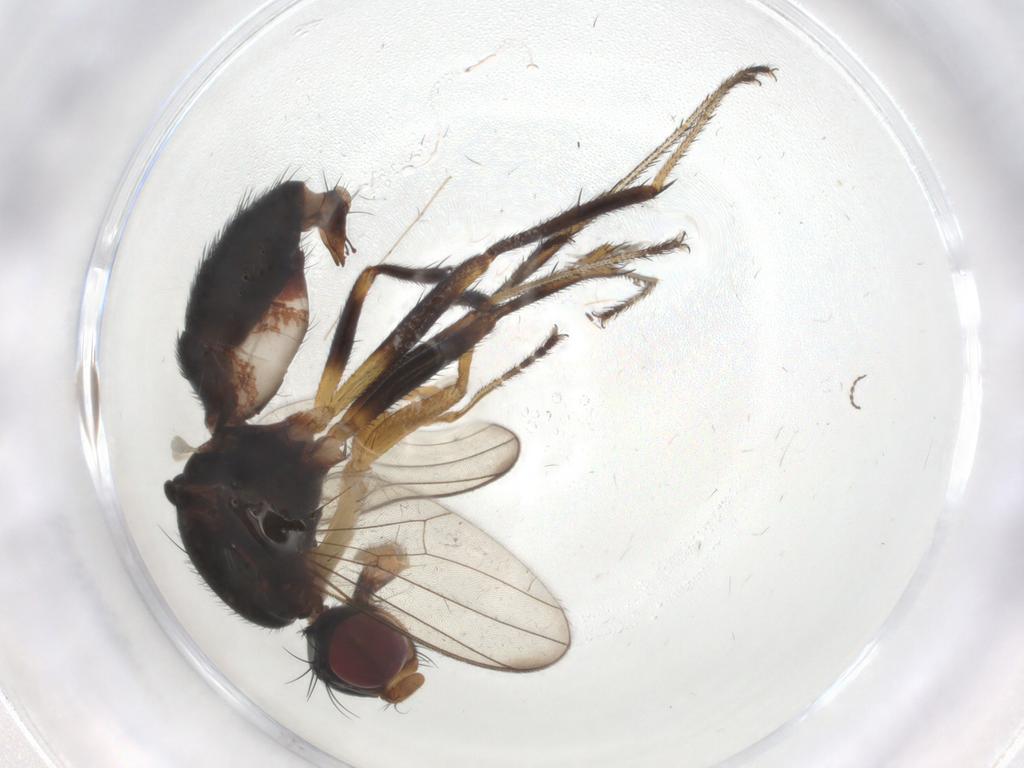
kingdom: Animalia
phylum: Arthropoda
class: Insecta
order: Diptera
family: Sepsidae
